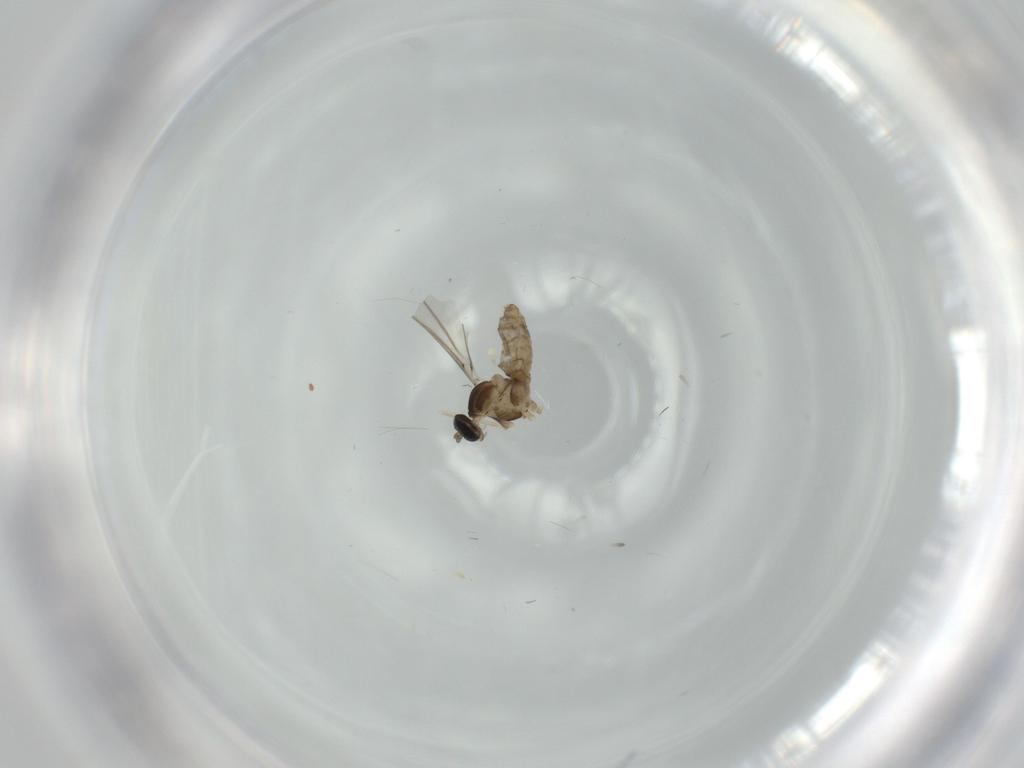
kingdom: Animalia
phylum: Arthropoda
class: Insecta
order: Diptera
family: Cecidomyiidae
